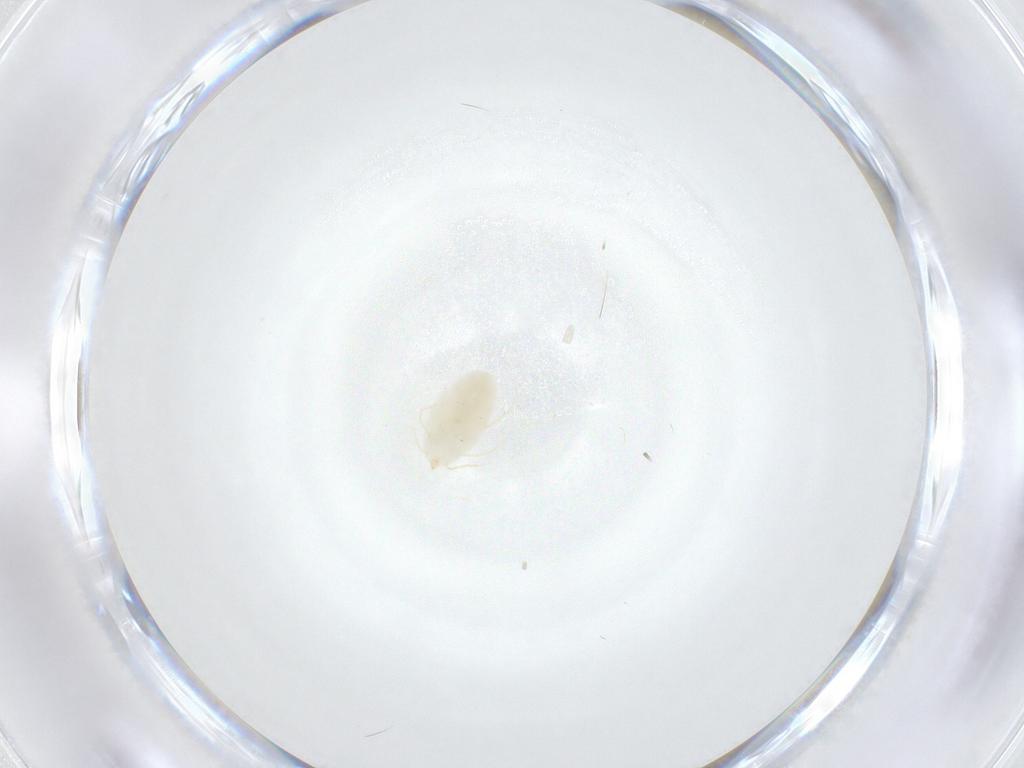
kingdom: Animalia
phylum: Arthropoda
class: Arachnida
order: Trombidiformes
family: Erythraeidae
